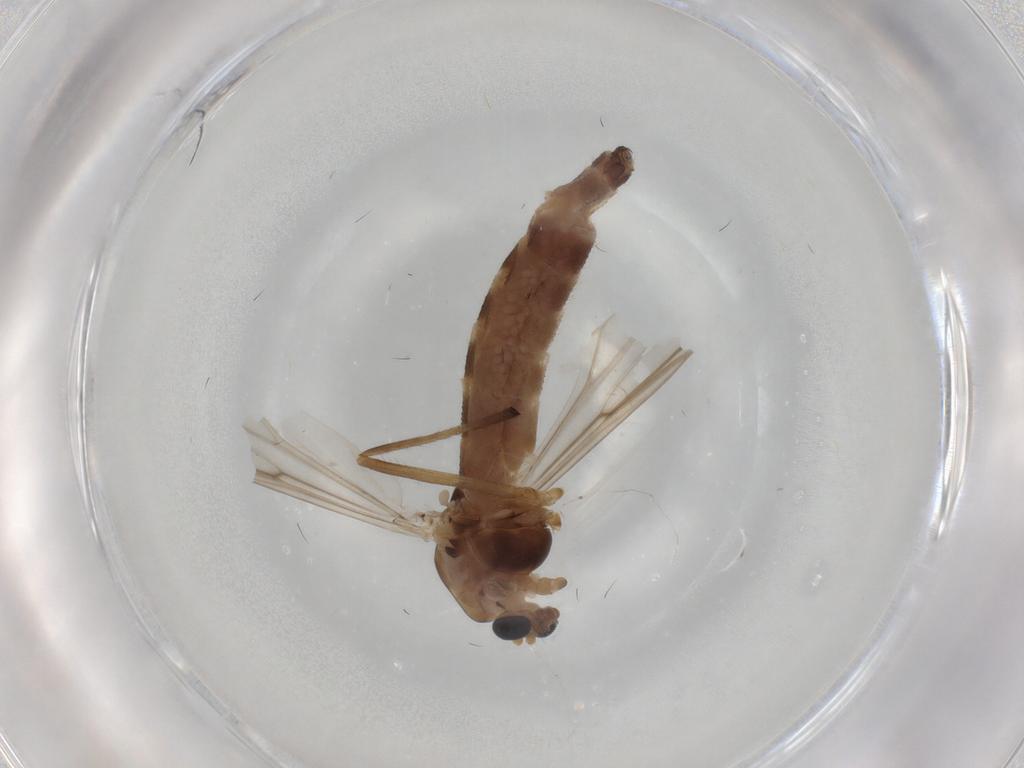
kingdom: Animalia
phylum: Arthropoda
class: Insecta
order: Diptera
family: Chironomidae
